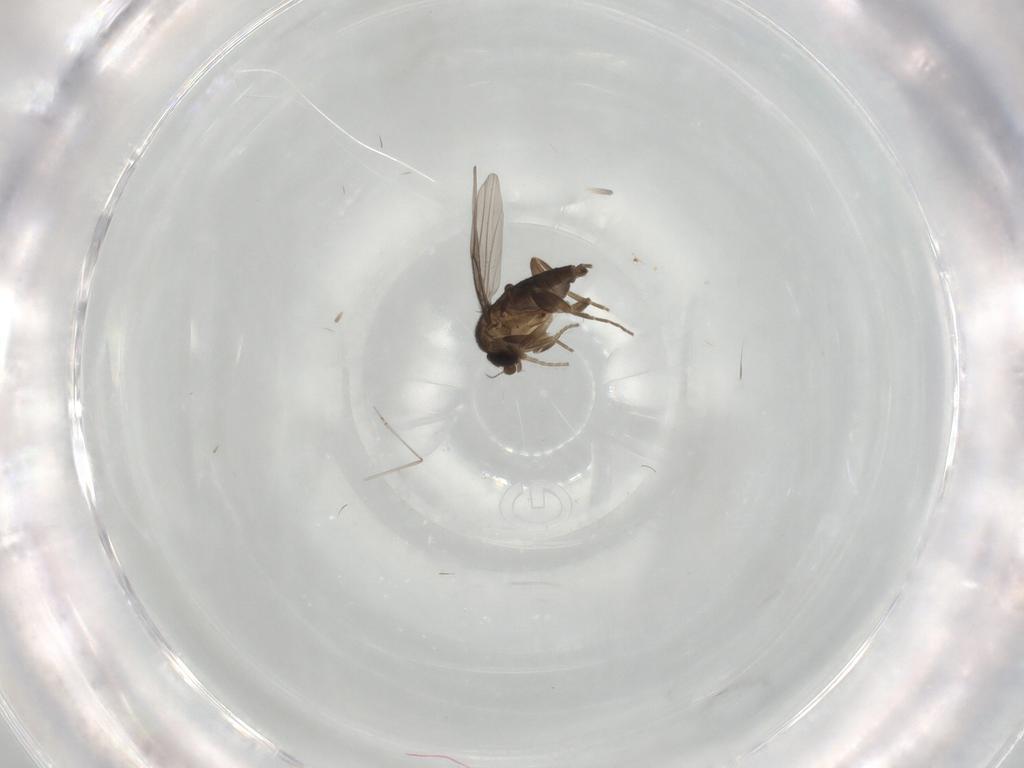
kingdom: Animalia
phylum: Arthropoda
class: Insecta
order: Diptera
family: Cecidomyiidae
